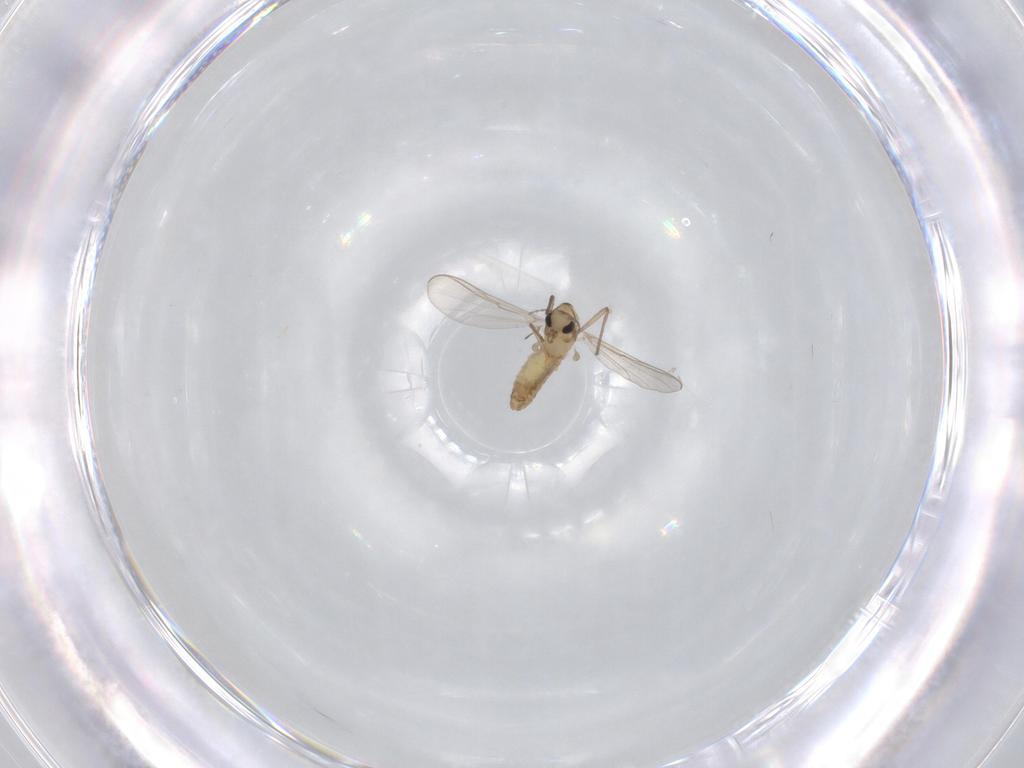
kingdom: Animalia
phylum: Arthropoda
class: Insecta
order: Diptera
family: Chironomidae
